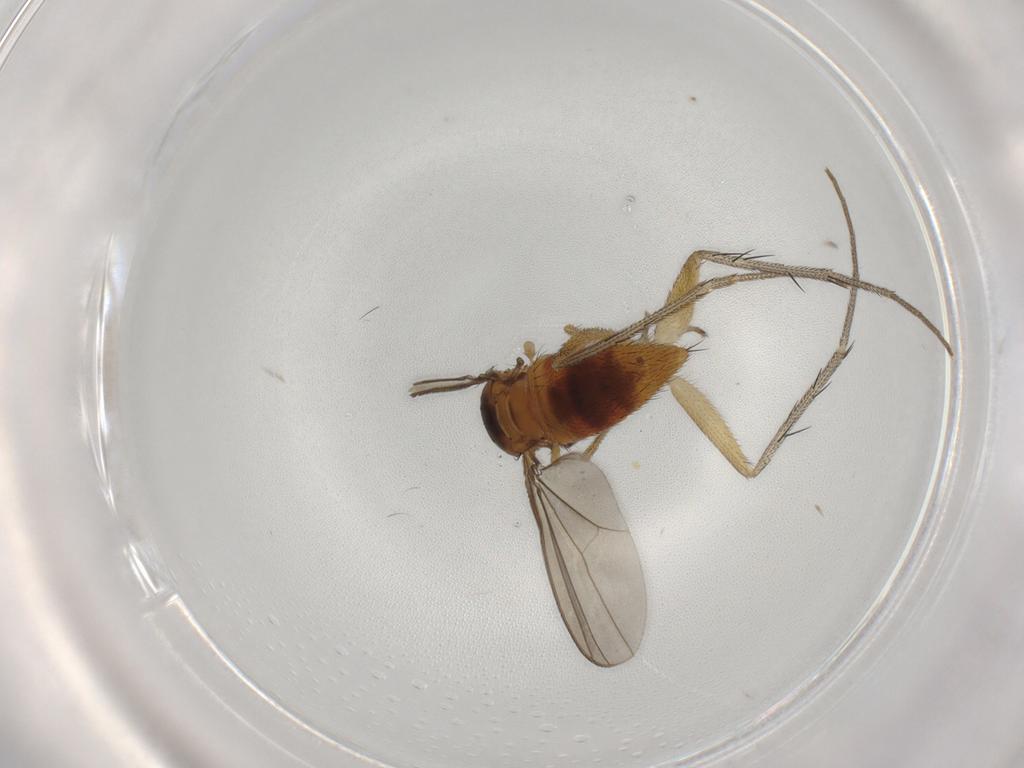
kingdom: Animalia
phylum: Arthropoda
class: Insecta
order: Diptera
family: Dolichopodidae
